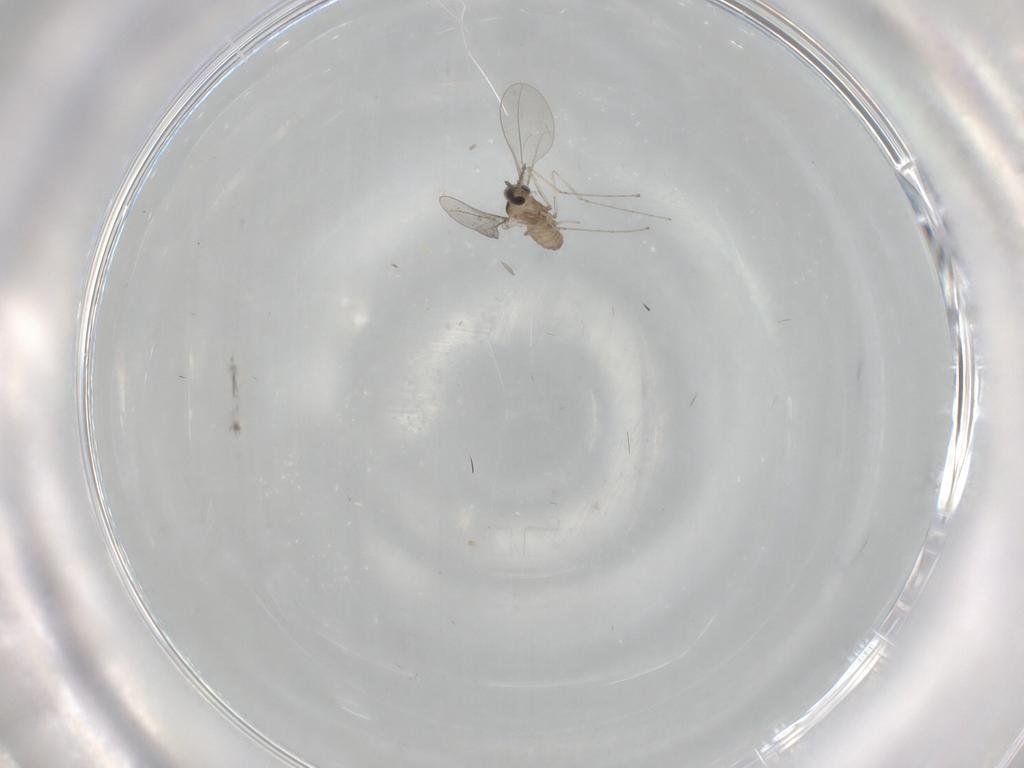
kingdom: Animalia
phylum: Arthropoda
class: Insecta
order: Diptera
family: Cecidomyiidae
